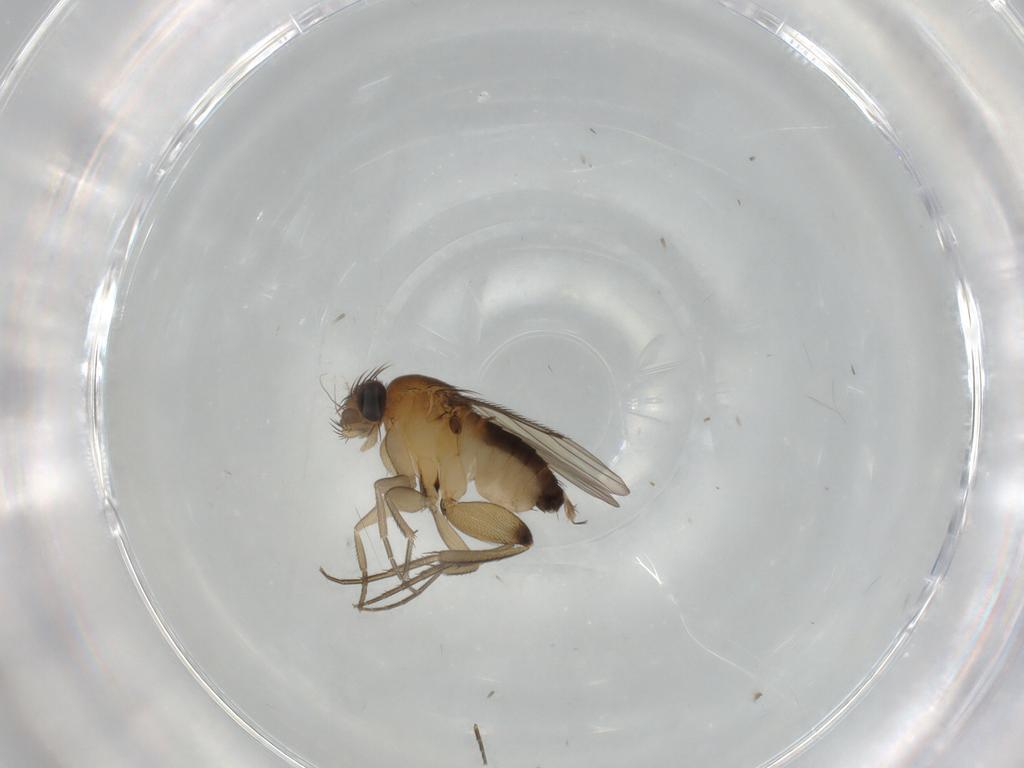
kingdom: Animalia
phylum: Arthropoda
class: Insecta
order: Diptera
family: Phoridae
